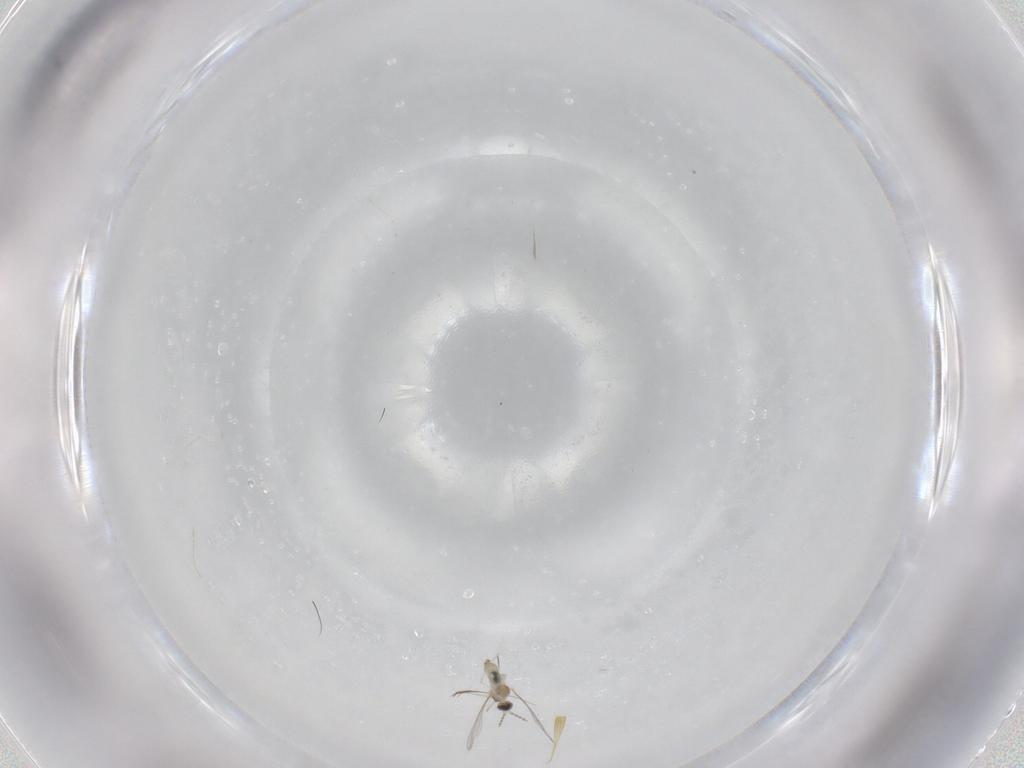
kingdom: Animalia
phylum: Arthropoda
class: Insecta
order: Diptera
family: Cecidomyiidae
